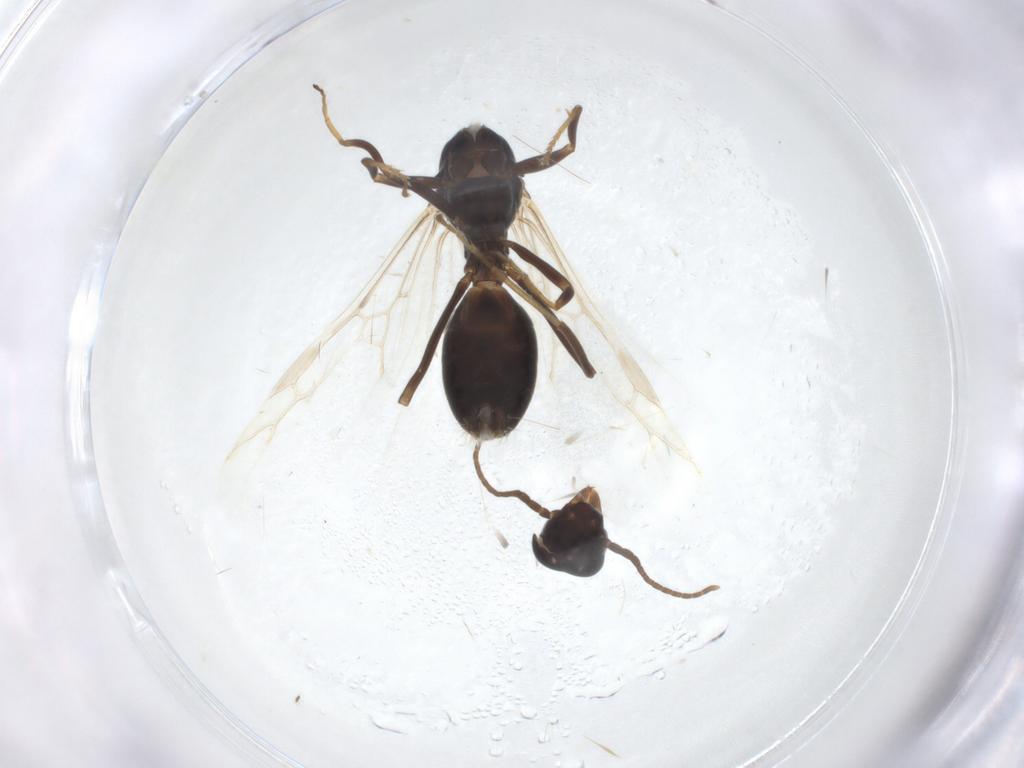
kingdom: Animalia
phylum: Arthropoda
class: Insecta
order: Hymenoptera
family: Formicidae
